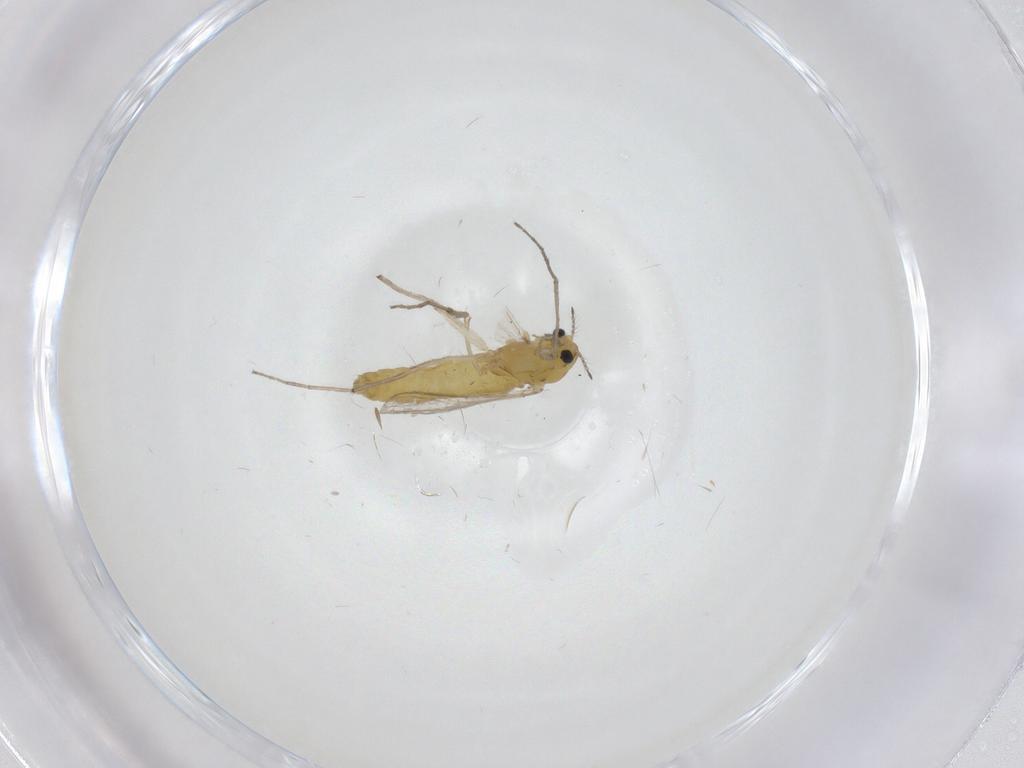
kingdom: Animalia
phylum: Arthropoda
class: Insecta
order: Diptera
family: Chironomidae
